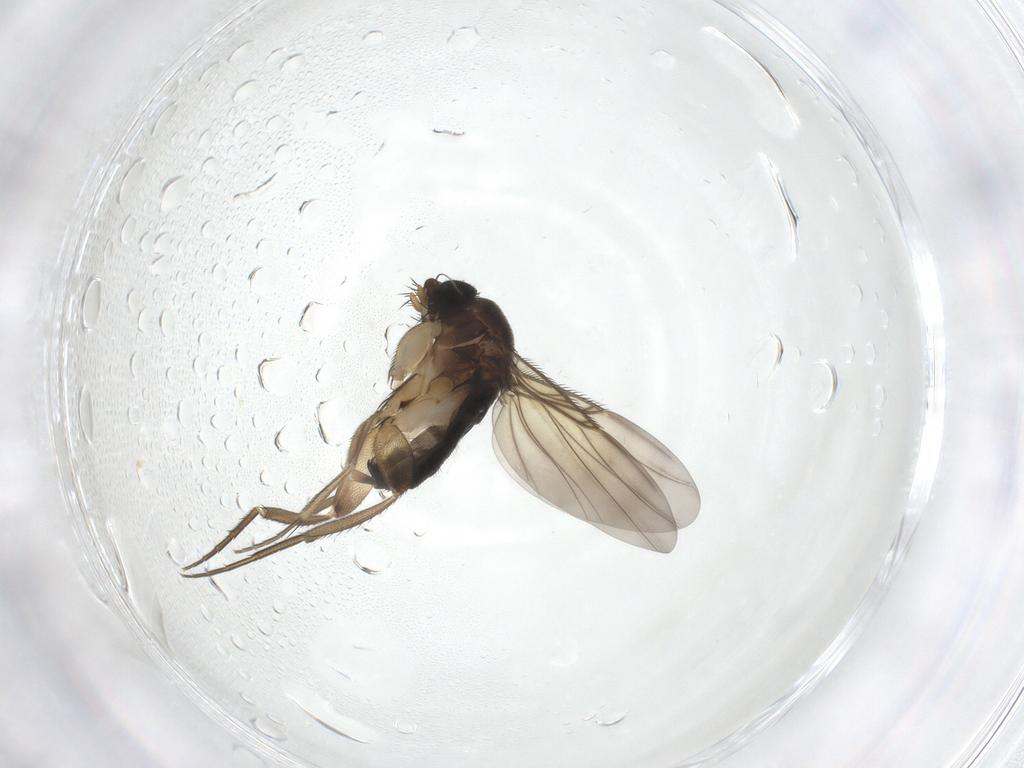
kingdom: Animalia
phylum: Arthropoda
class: Insecta
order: Diptera
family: Phoridae
